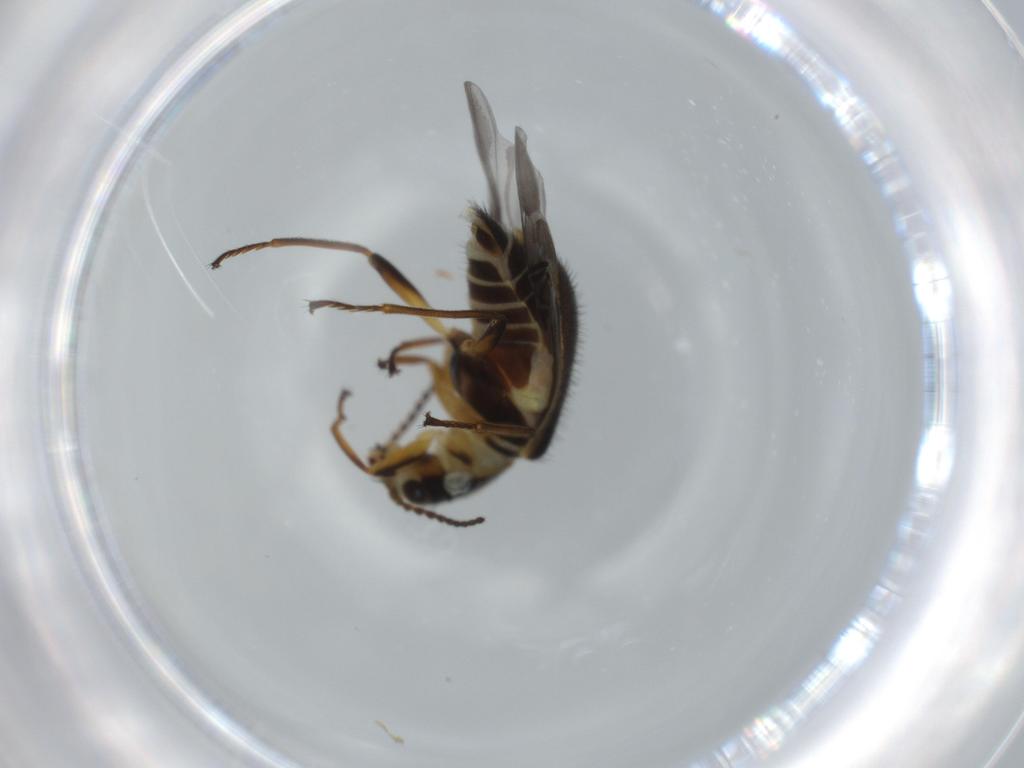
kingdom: Animalia
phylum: Arthropoda
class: Insecta
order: Coleoptera
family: Melyridae
